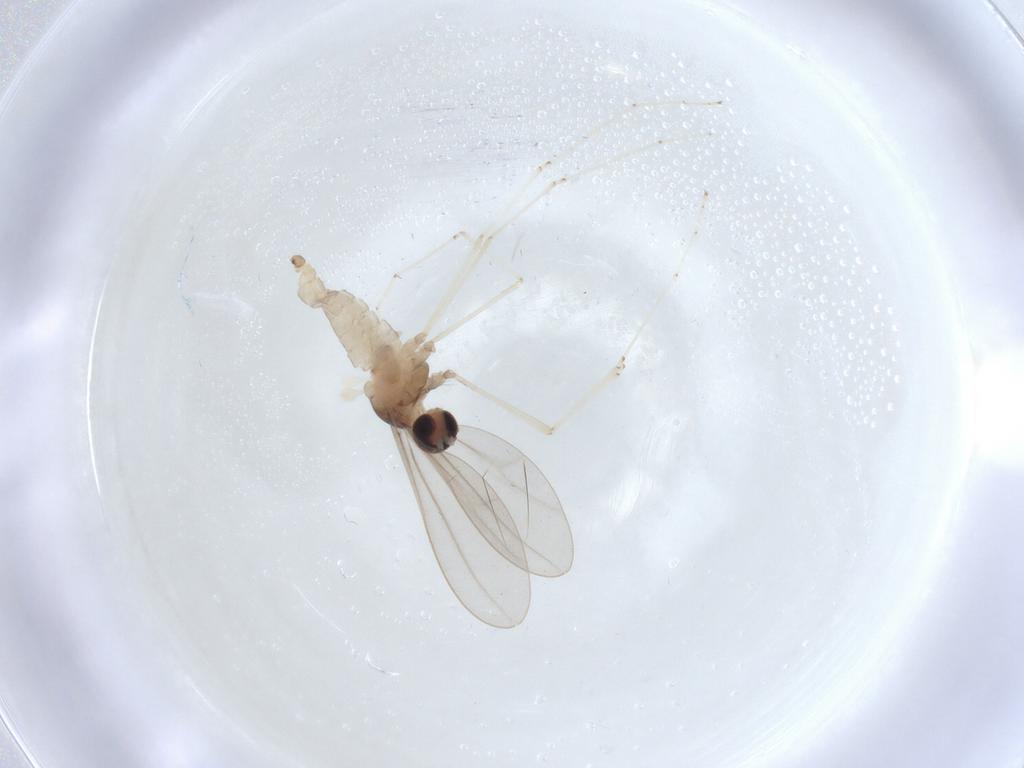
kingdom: Animalia
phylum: Arthropoda
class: Insecta
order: Diptera
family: Cecidomyiidae
